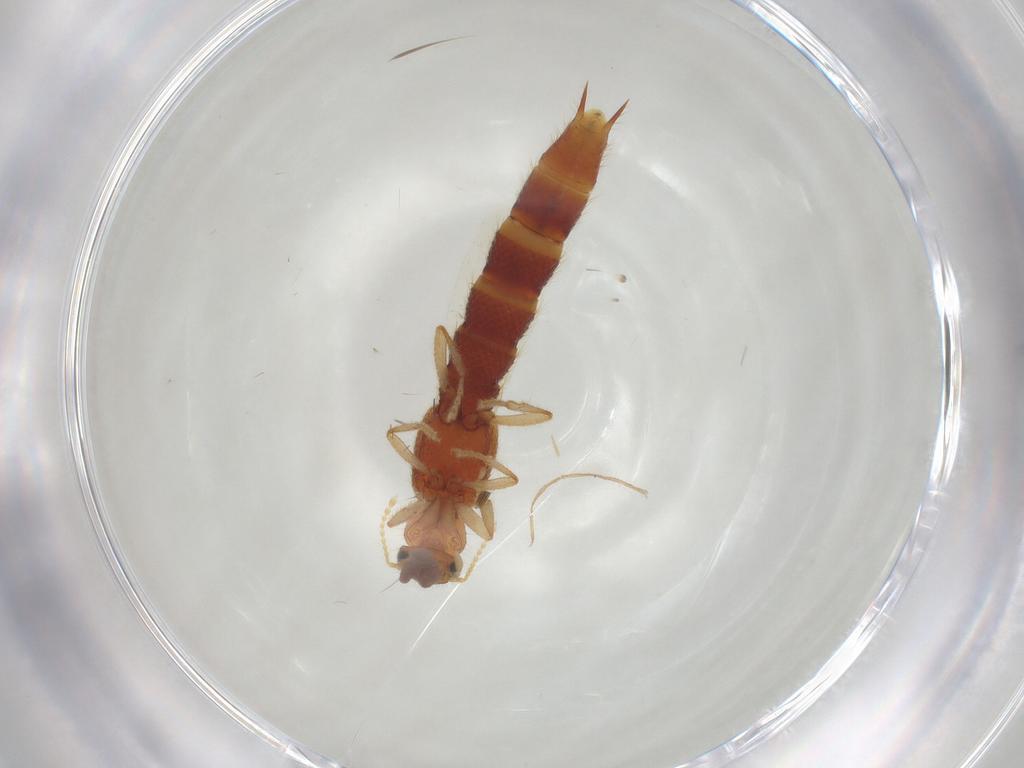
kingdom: Animalia
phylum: Arthropoda
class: Insecta
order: Coleoptera
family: Staphylinidae
